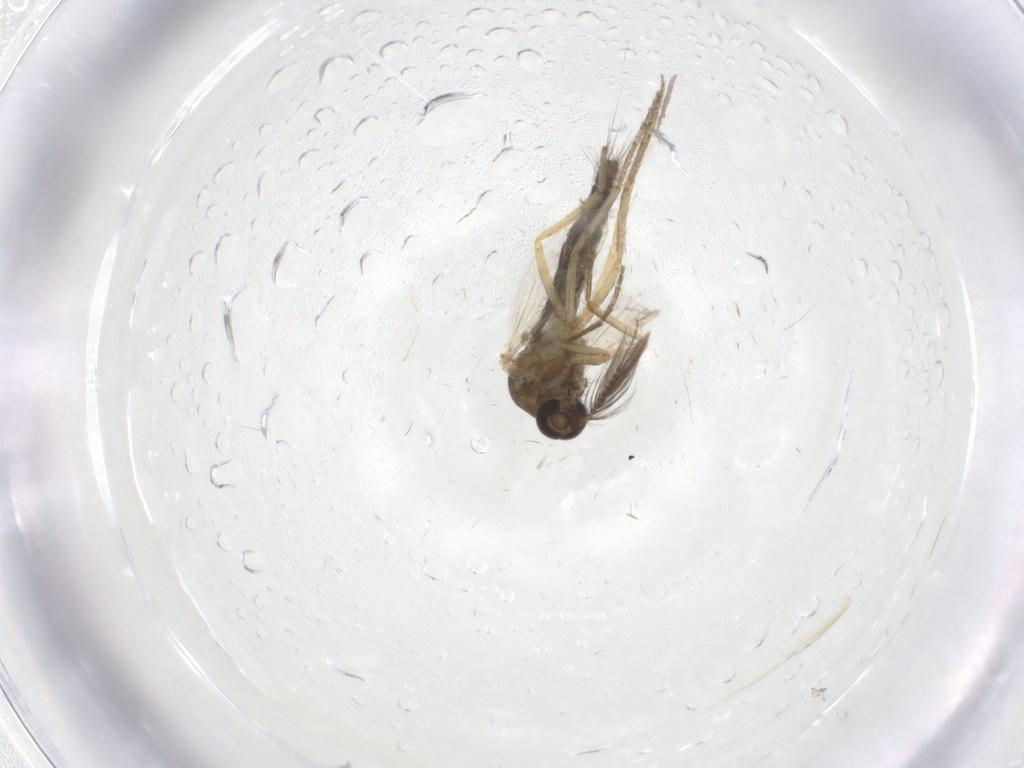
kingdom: Animalia
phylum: Arthropoda
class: Insecta
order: Diptera
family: Ceratopogonidae
